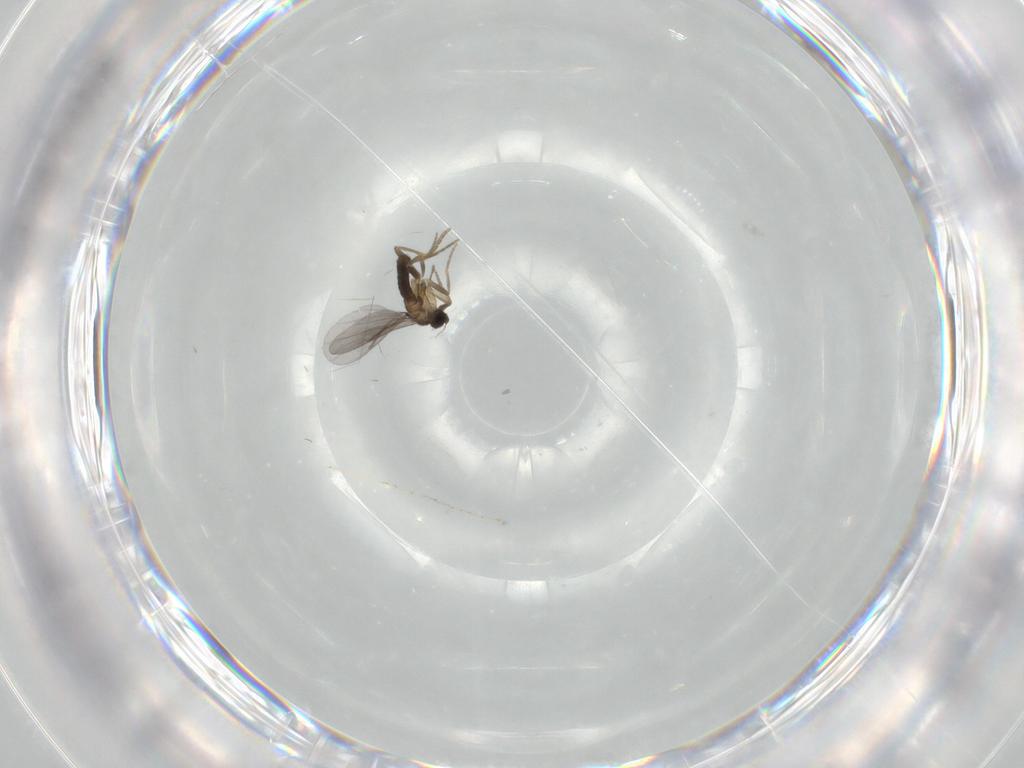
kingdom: Animalia
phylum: Arthropoda
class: Insecta
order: Diptera
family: Cecidomyiidae
